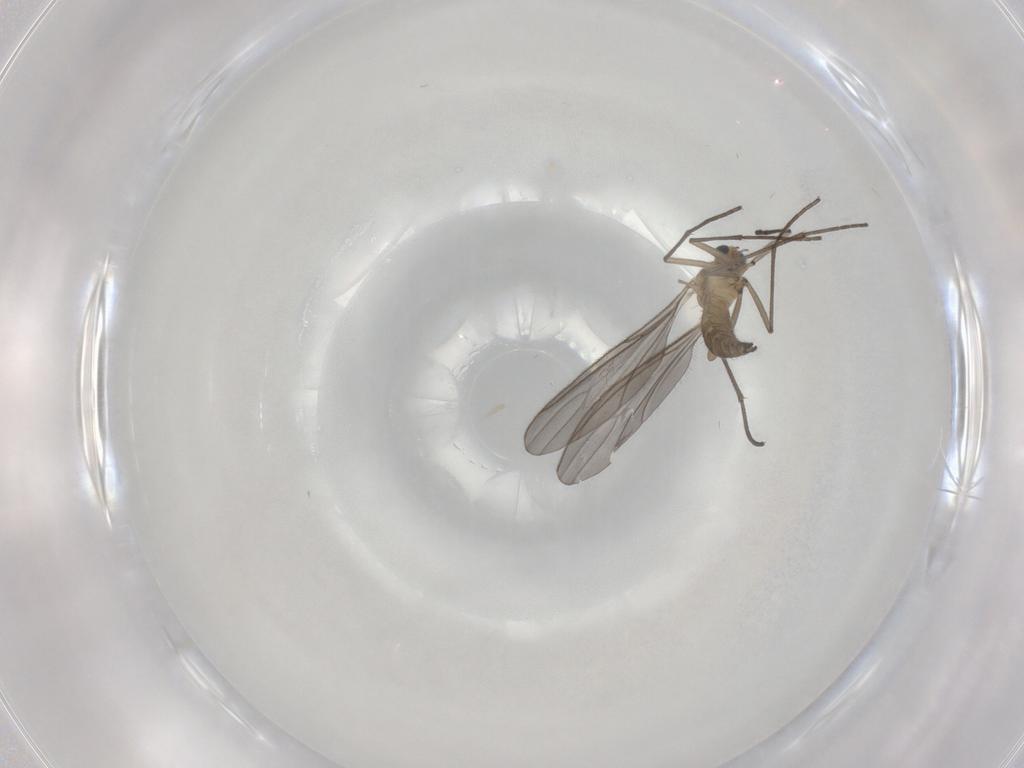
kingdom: Animalia
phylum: Arthropoda
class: Insecta
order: Diptera
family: Sciaridae
